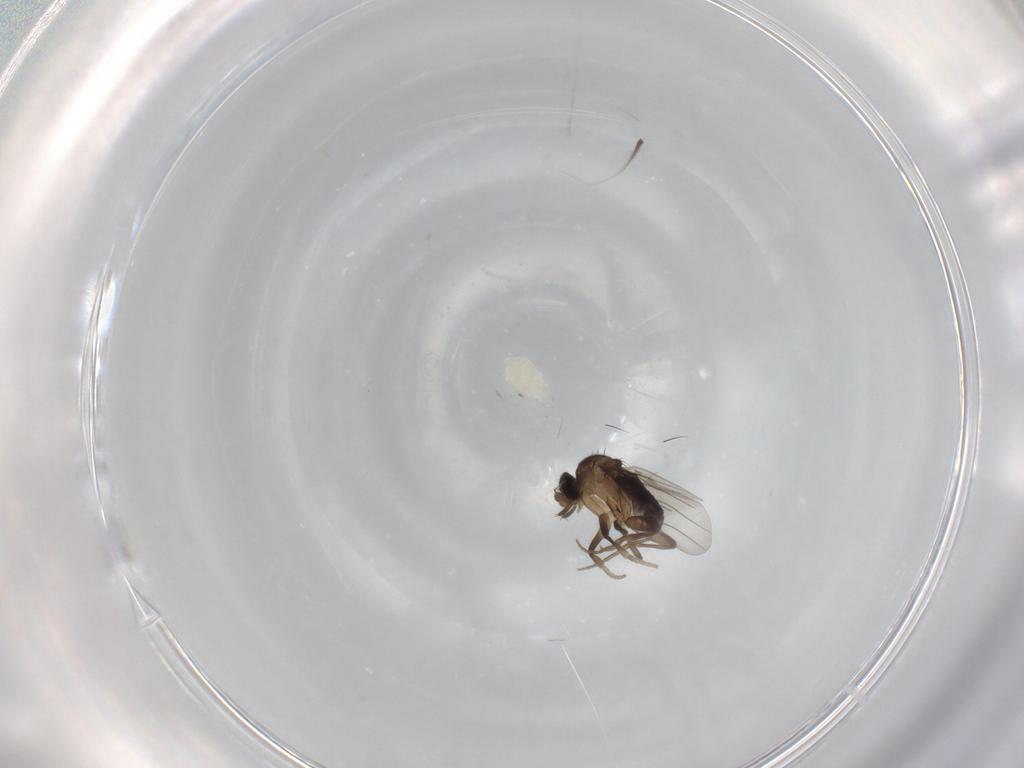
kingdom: Animalia
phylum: Arthropoda
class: Insecta
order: Diptera
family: Phoridae
